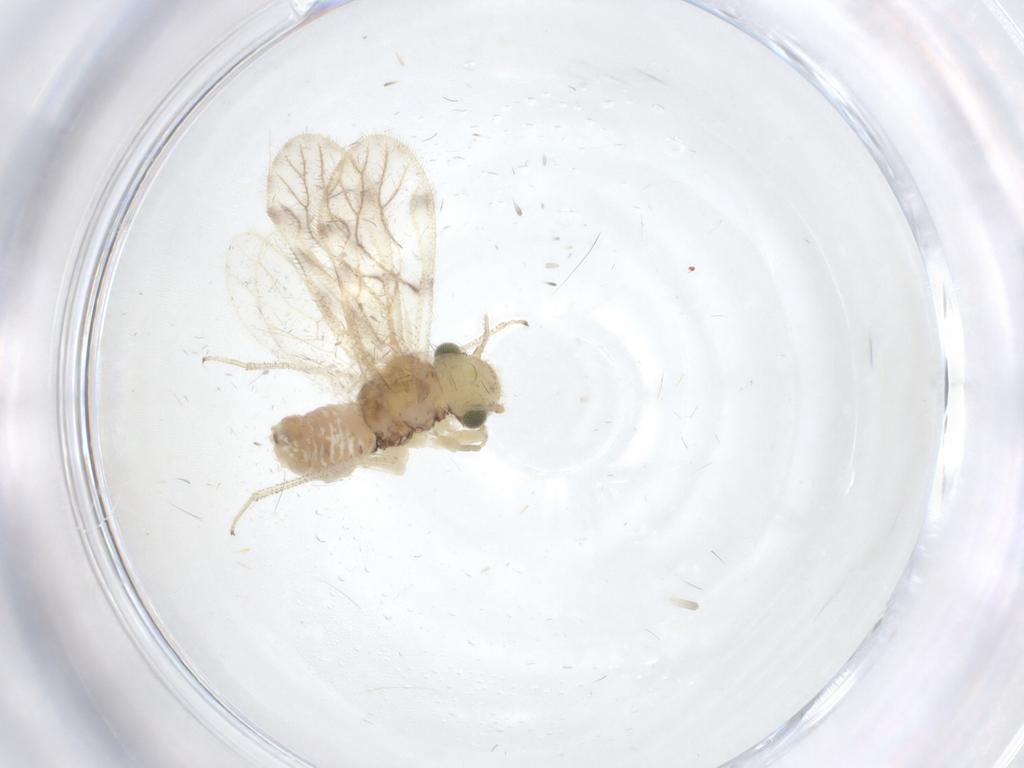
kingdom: Animalia
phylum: Arthropoda
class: Insecta
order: Psocodea
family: Pseudocaeciliidae
